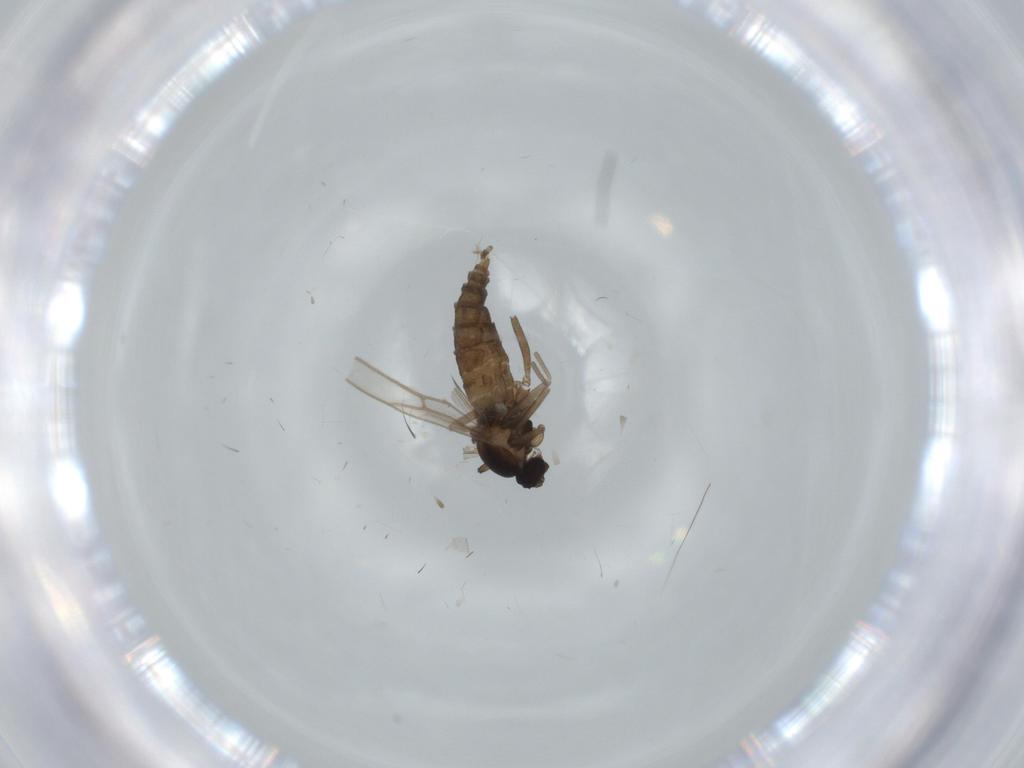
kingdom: Animalia
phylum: Arthropoda
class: Insecta
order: Diptera
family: Cecidomyiidae
